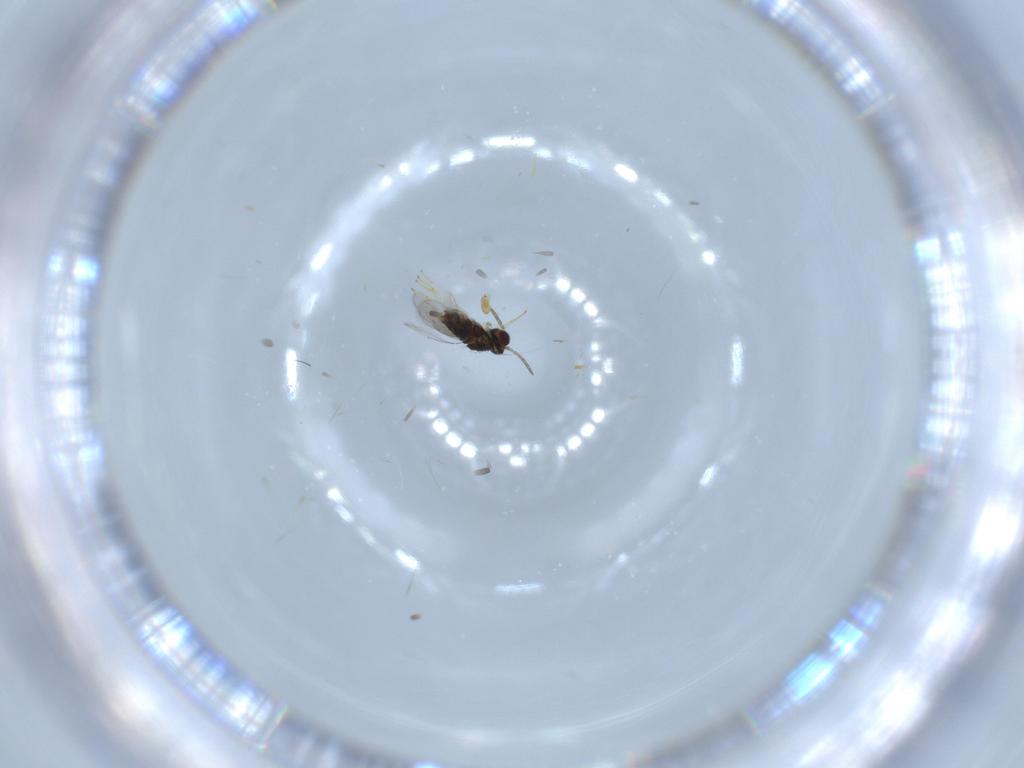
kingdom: Animalia
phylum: Arthropoda
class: Insecta
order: Diptera
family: Cecidomyiidae
